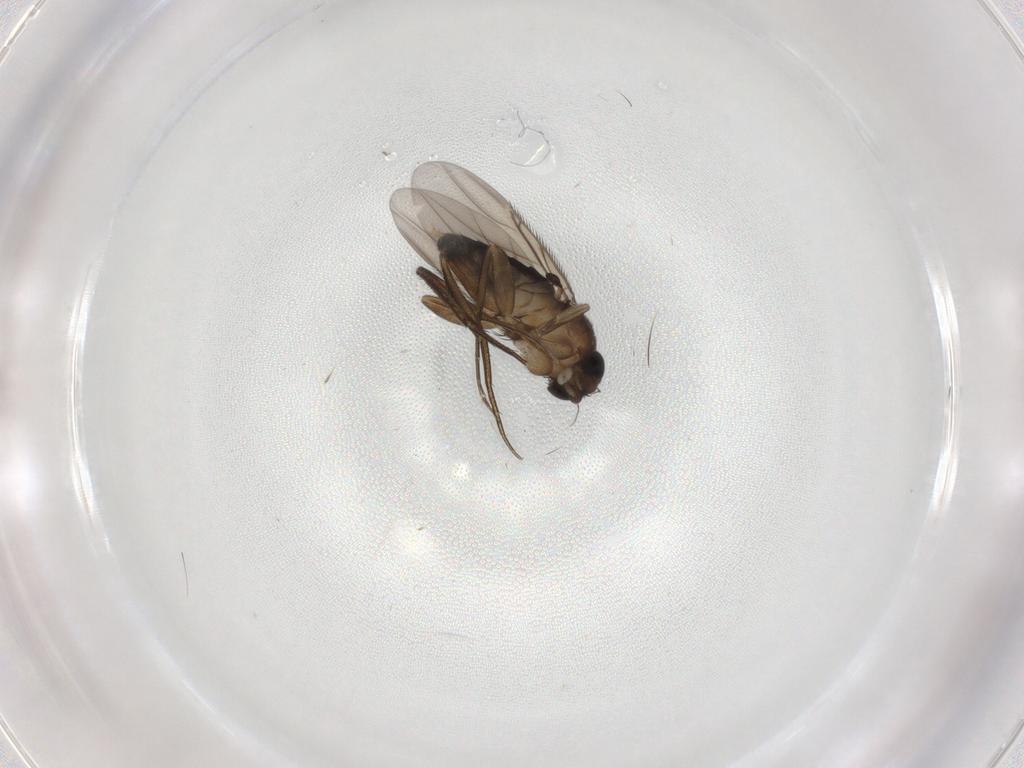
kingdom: Animalia
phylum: Arthropoda
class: Insecta
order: Diptera
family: Phoridae
